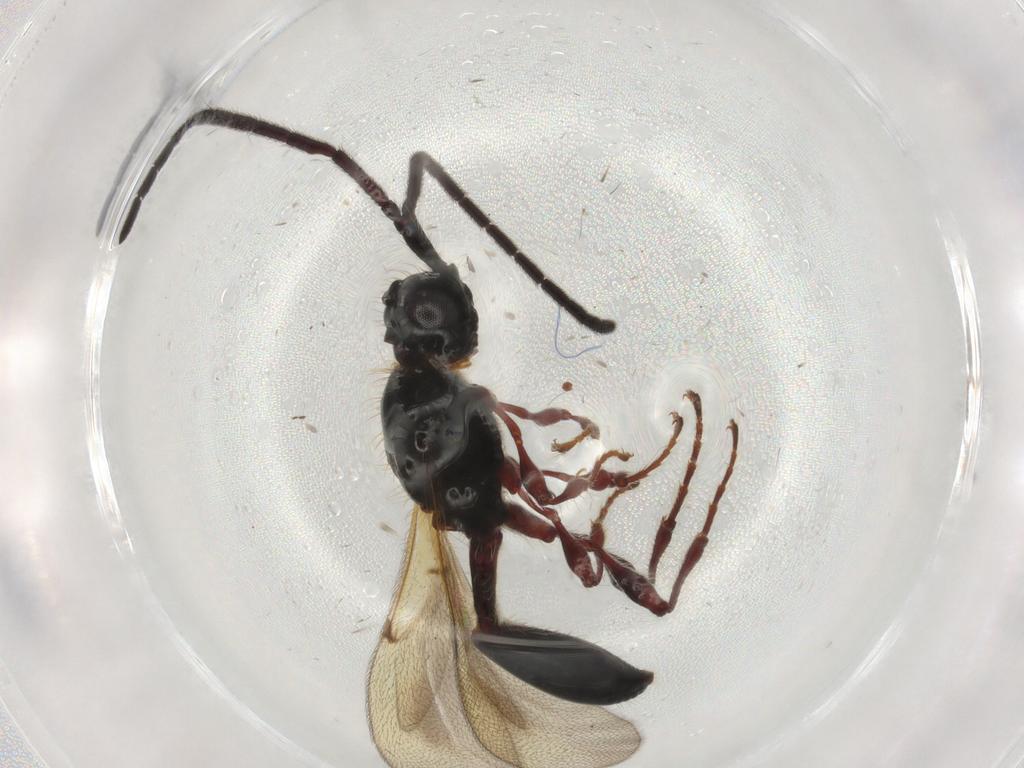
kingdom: Animalia
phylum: Arthropoda
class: Insecta
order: Hymenoptera
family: Diapriidae
